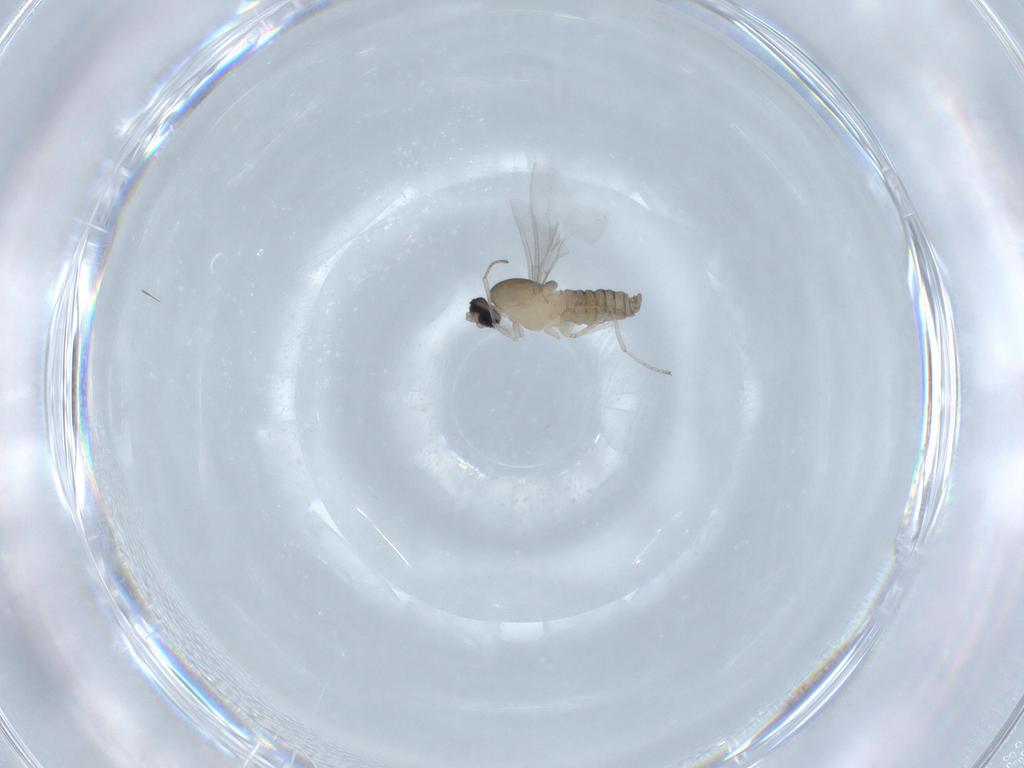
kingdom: Animalia
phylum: Arthropoda
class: Insecta
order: Diptera
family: Cecidomyiidae
